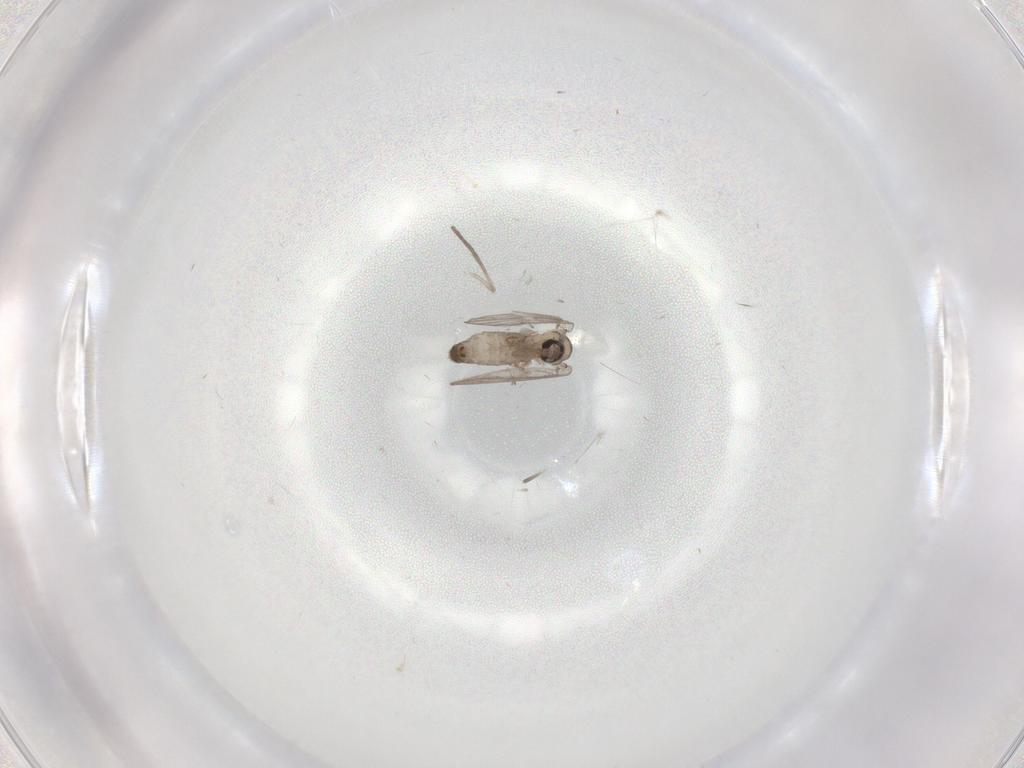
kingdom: Animalia
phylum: Arthropoda
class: Insecta
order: Diptera
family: Psychodidae
